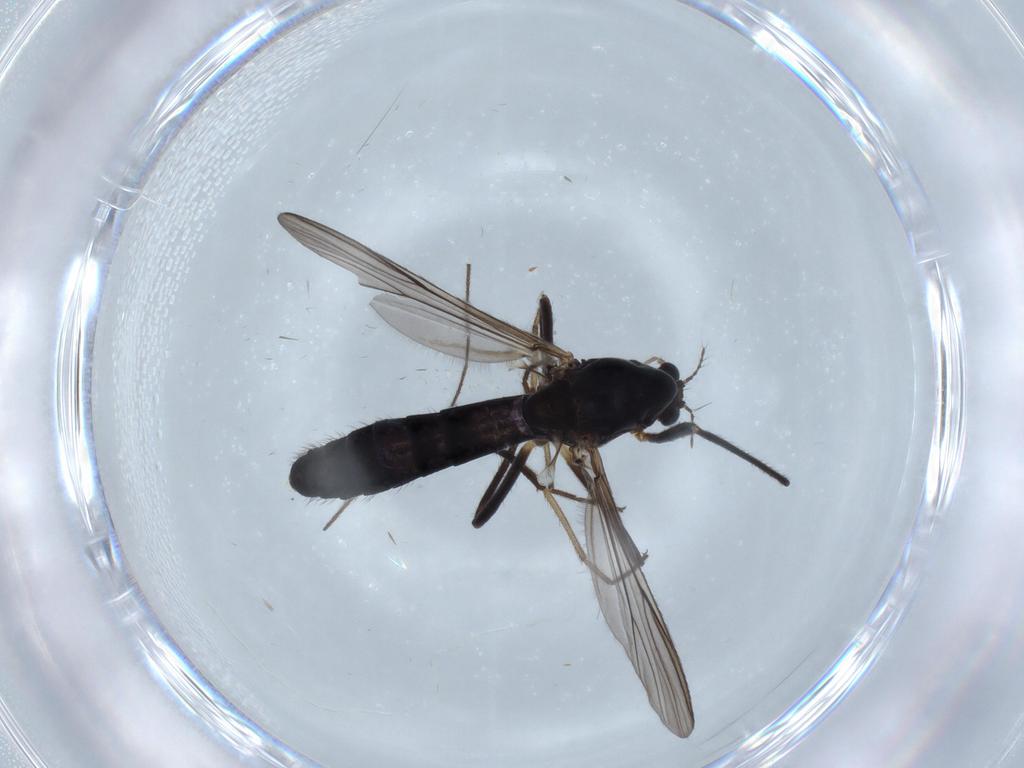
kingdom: Animalia
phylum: Arthropoda
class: Insecta
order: Diptera
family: Chironomidae
